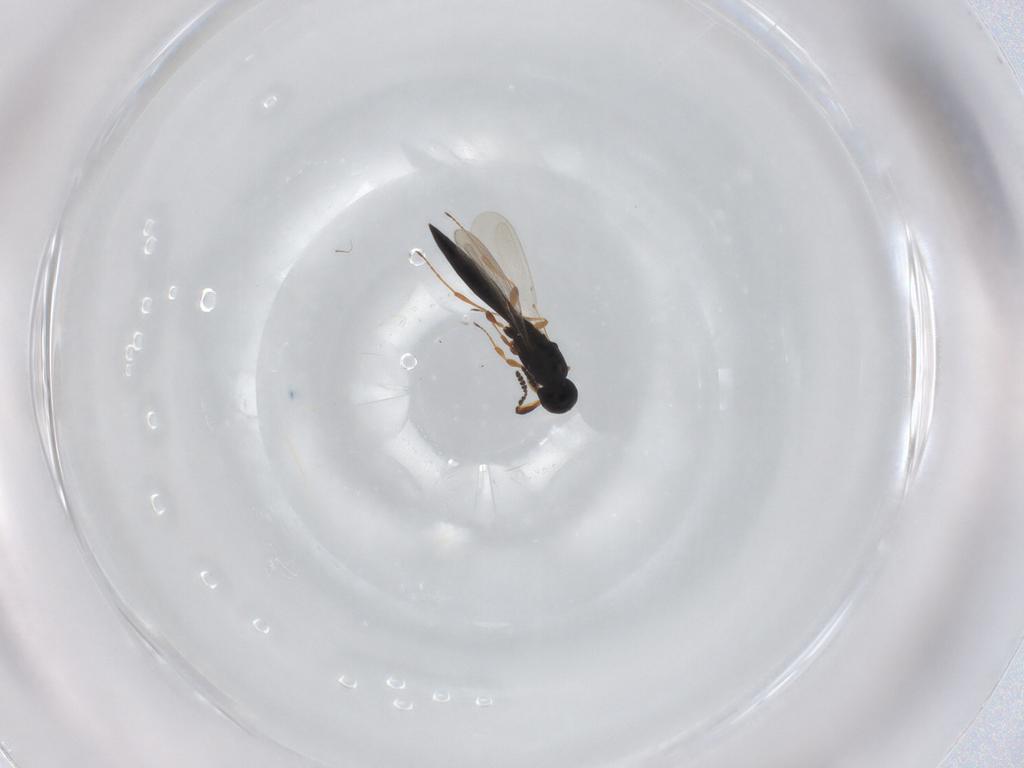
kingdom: Animalia
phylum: Arthropoda
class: Insecta
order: Hymenoptera
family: Platygastridae
